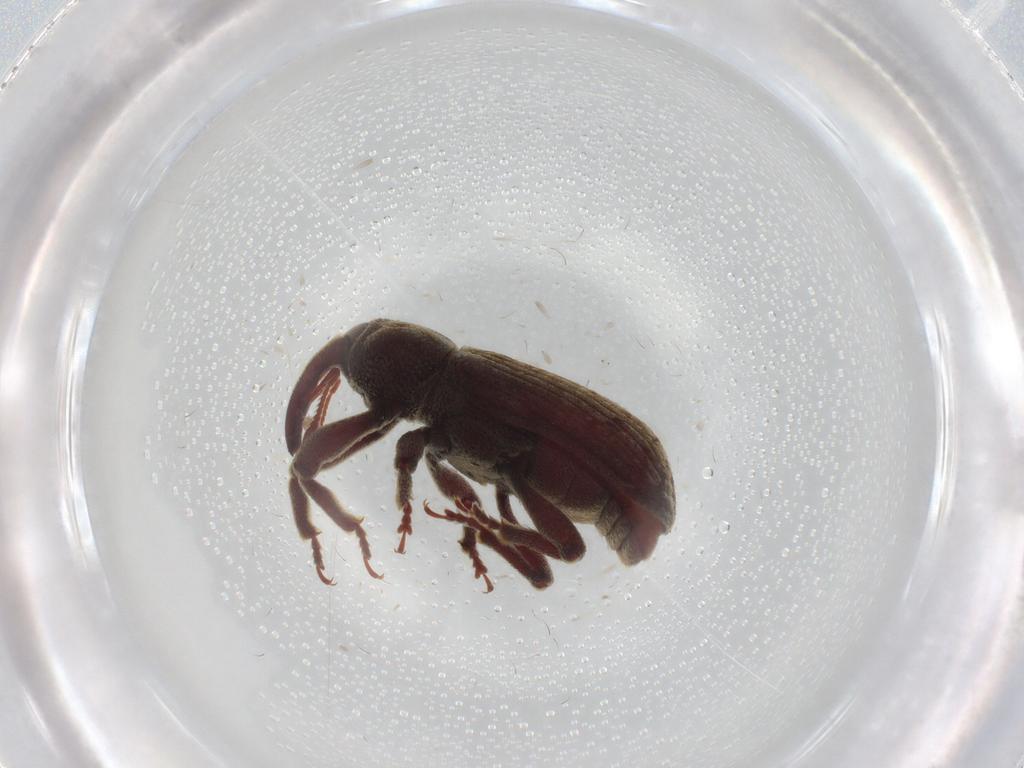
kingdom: Animalia
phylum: Arthropoda
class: Insecta
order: Coleoptera
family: Curculionidae
